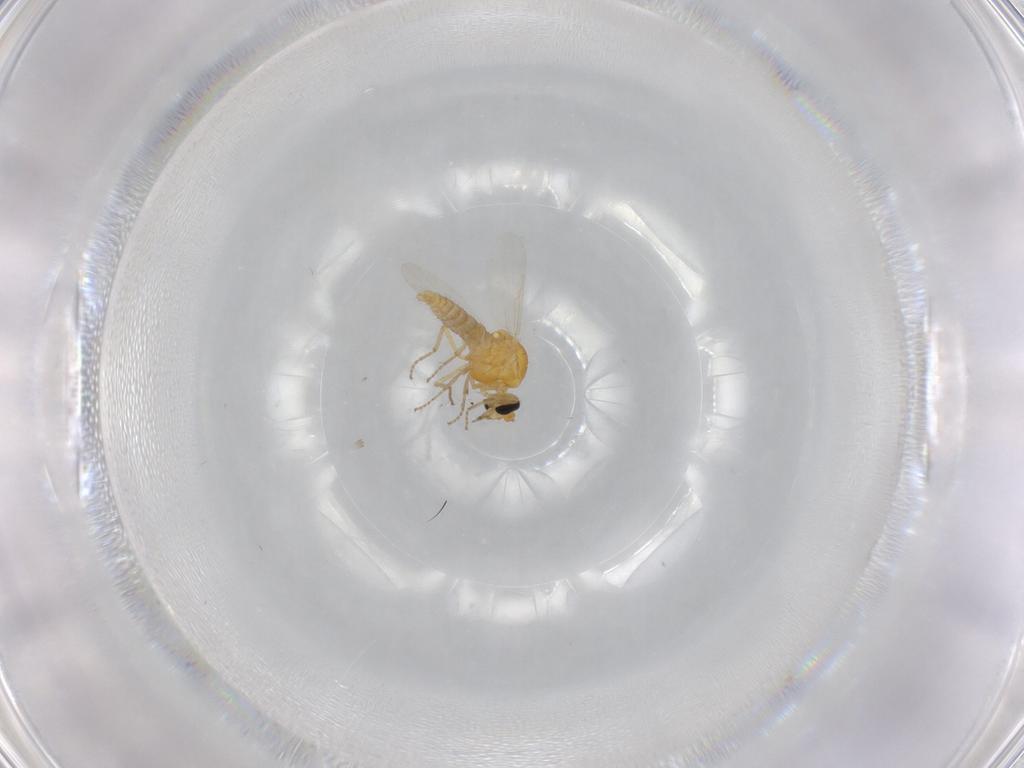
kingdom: Animalia
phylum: Arthropoda
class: Insecta
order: Diptera
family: Ceratopogonidae
